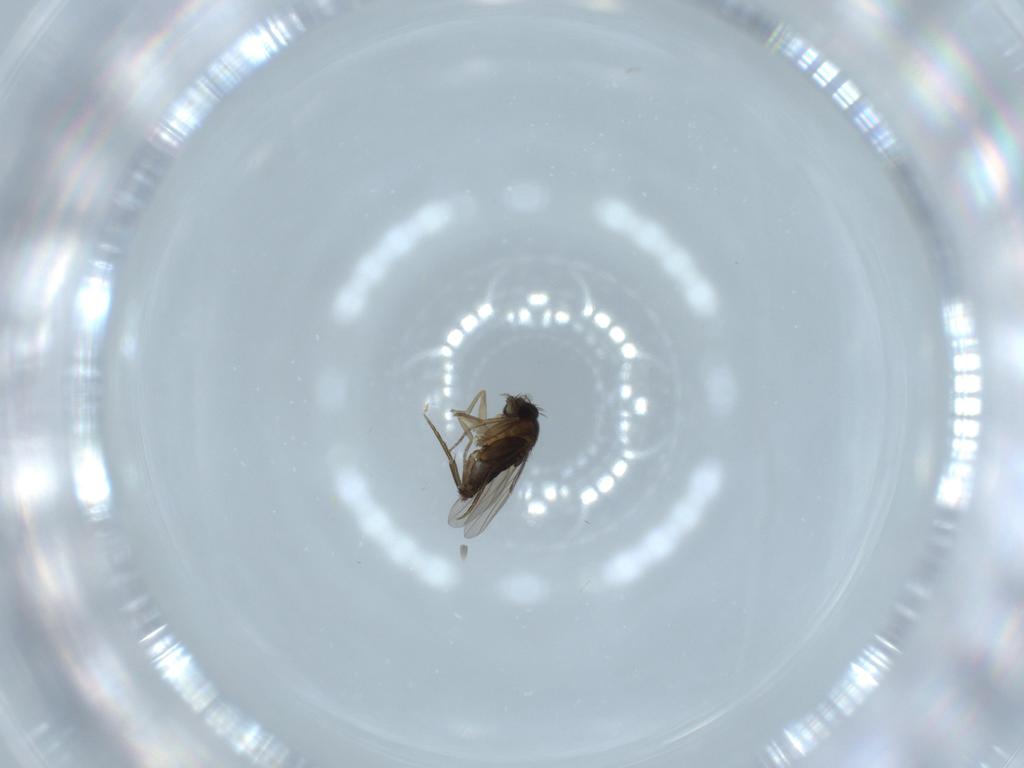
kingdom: Animalia
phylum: Arthropoda
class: Insecta
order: Diptera
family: Phoridae
